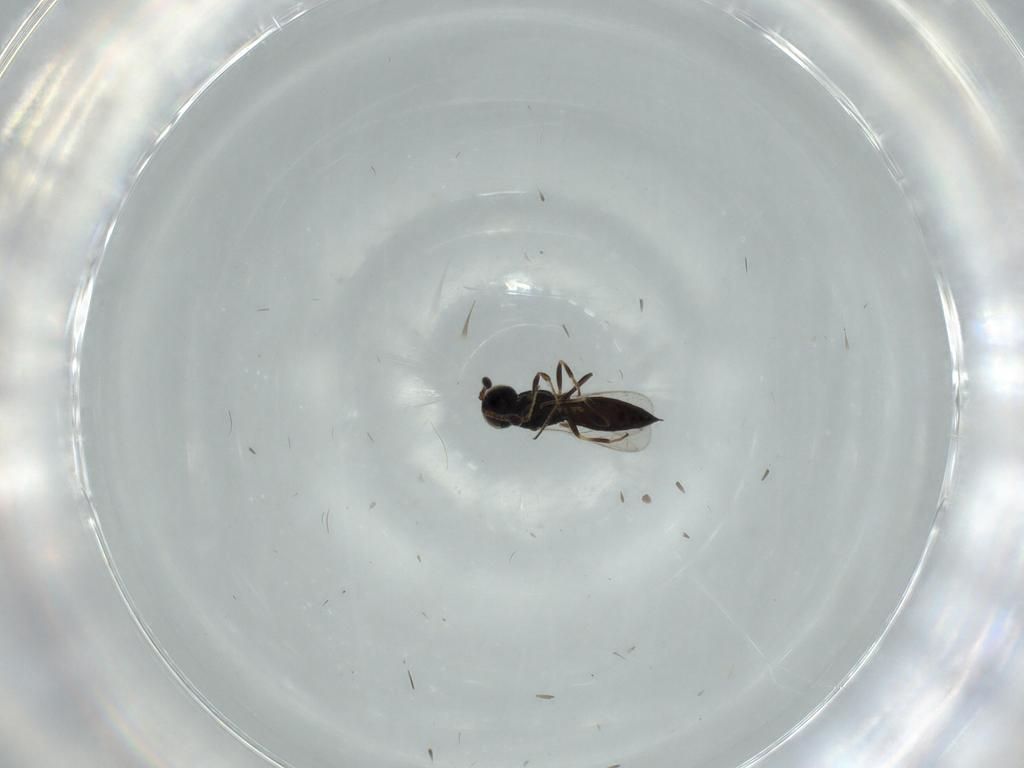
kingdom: Animalia
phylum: Arthropoda
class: Insecta
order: Hymenoptera
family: Scelionidae
